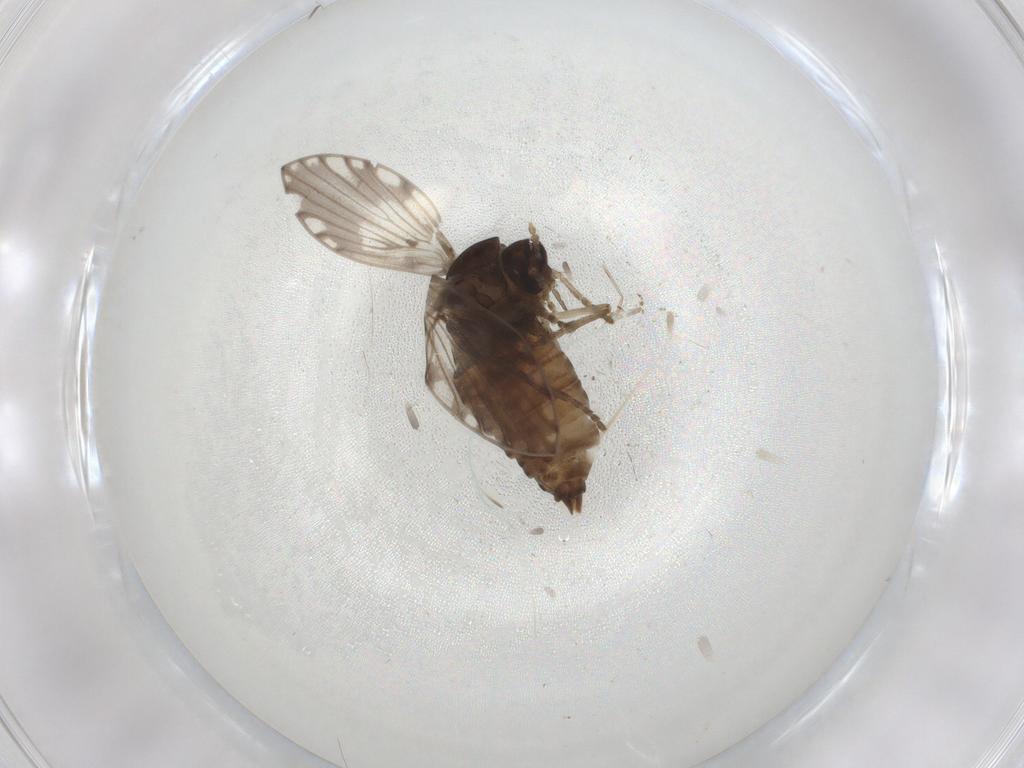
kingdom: Animalia
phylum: Arthropoda
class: Insecta
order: Diptera
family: Psychodidae
